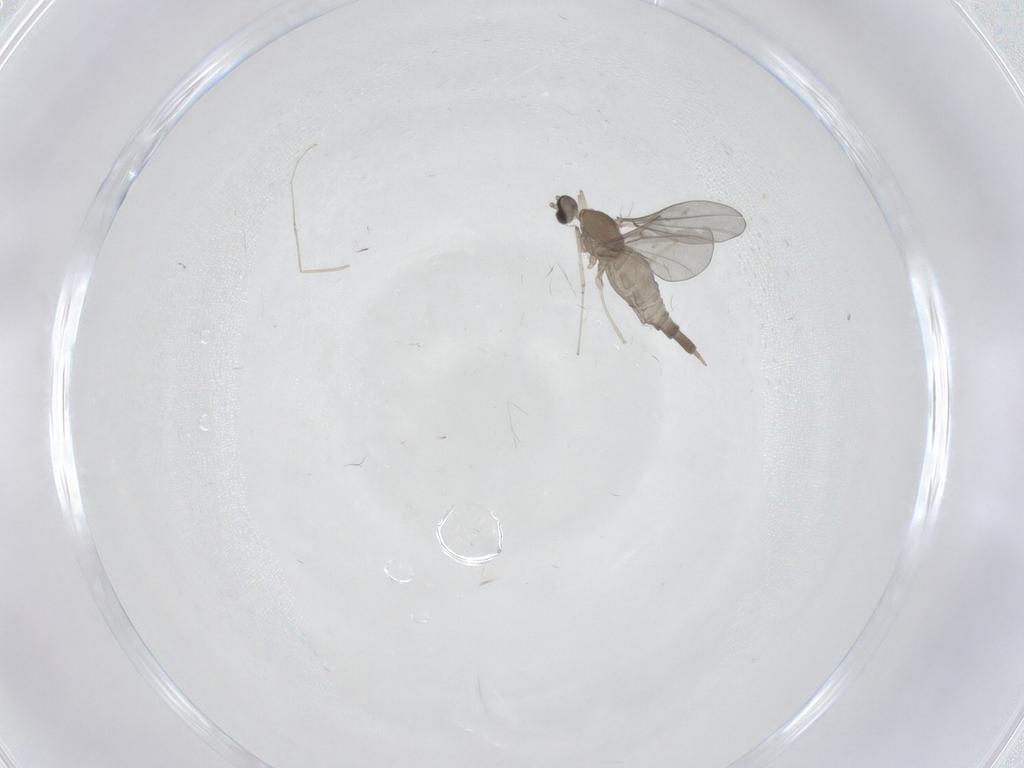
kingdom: Animalia
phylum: Arthropoda
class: Insecta
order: Diptera
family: Cecidomyiidae
